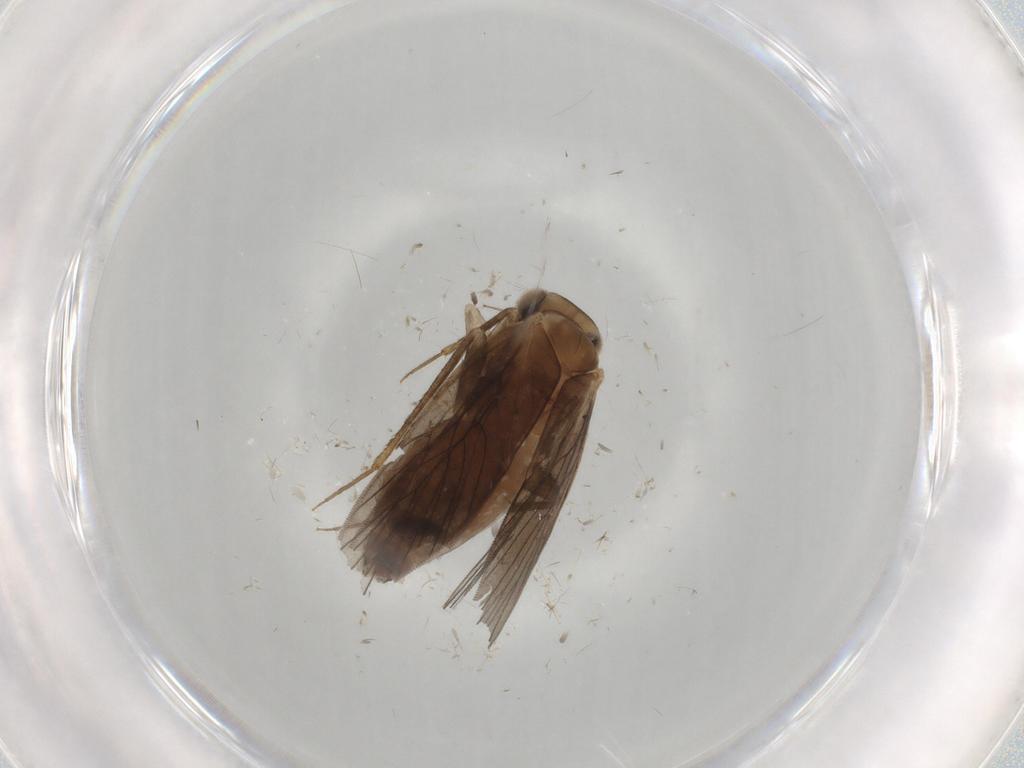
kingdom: Animalia
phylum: Arthropoda
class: Insecta
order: Psocodea
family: Lepidopsocidae
